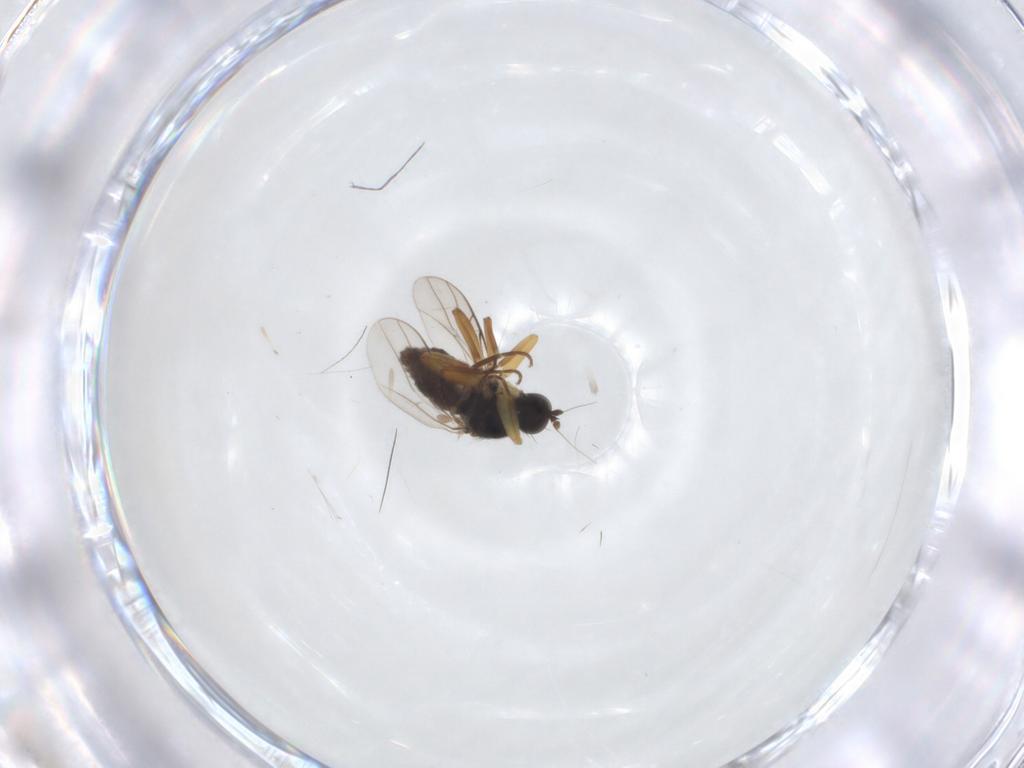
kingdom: Animalia
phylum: Arthropoda
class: Insecta
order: Diptera
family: Hybotidae
